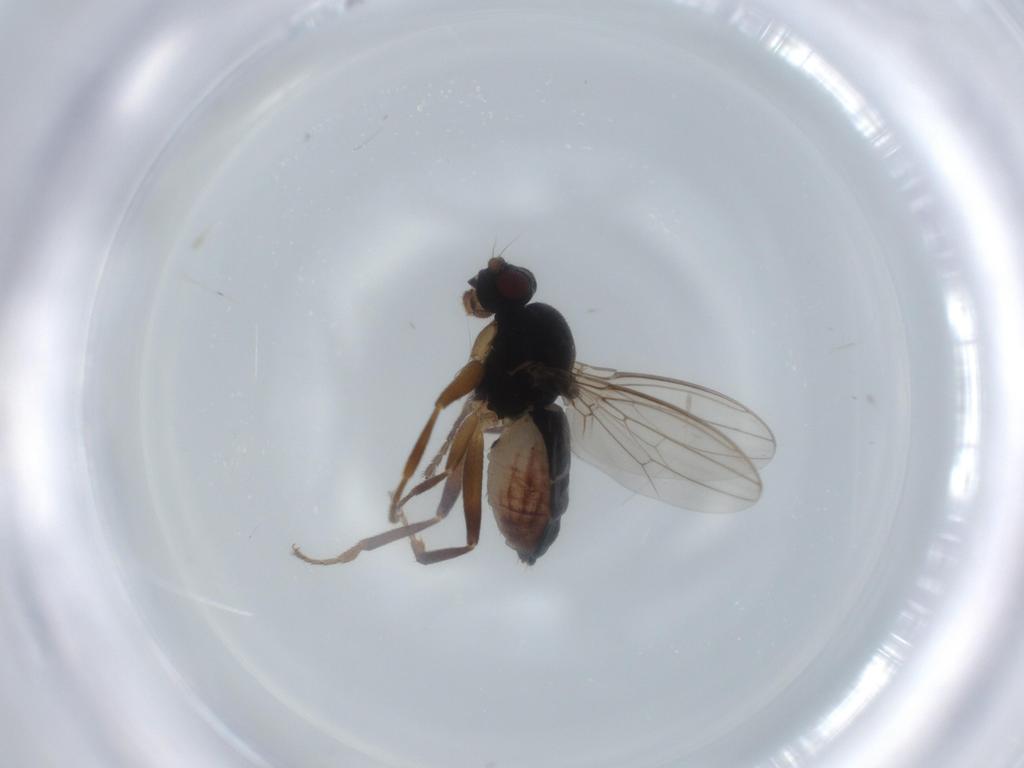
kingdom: Animalia
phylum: Arthropoda
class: Insecta
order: Diptera
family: Sphaeroceridae
